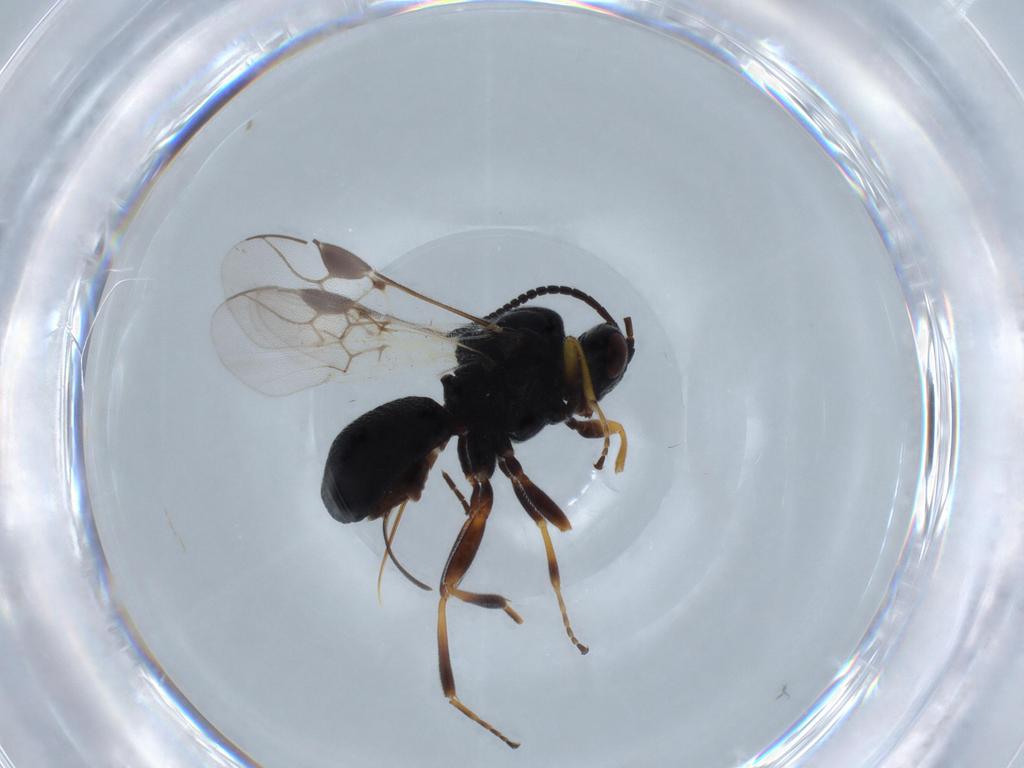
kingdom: Animalia
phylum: Arthropoda
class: Insecta
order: Hymenoptera
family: Braconidae
